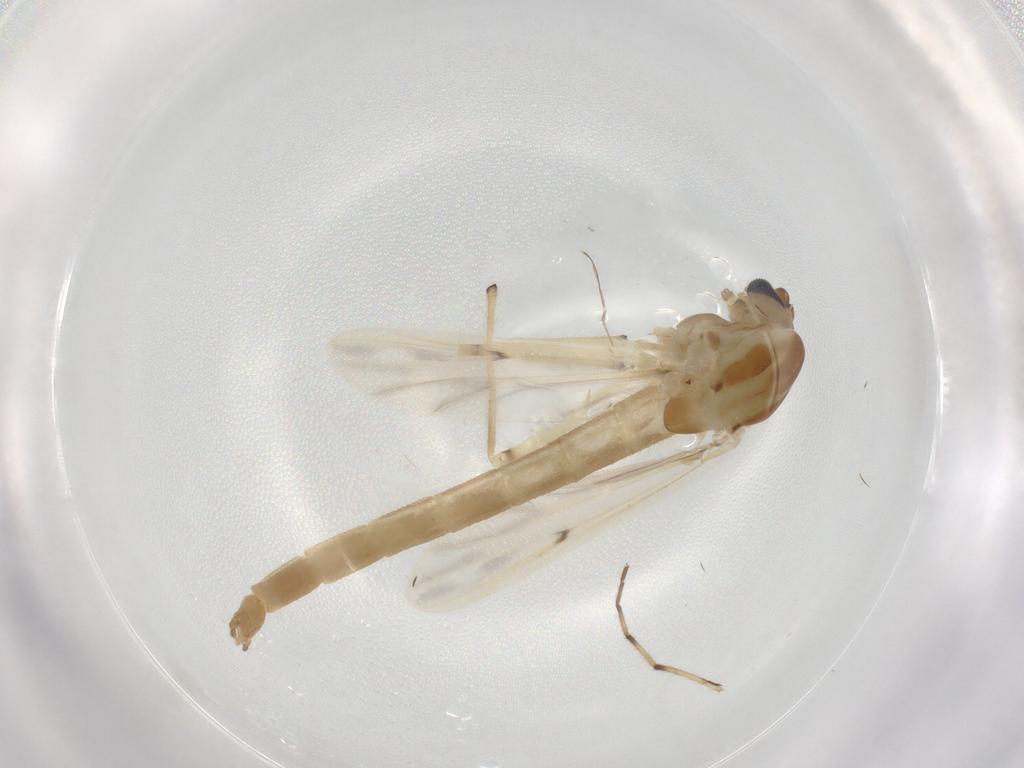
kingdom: Animalia
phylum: Arthropoda
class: Insecta
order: Diptera
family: Chironomidae
